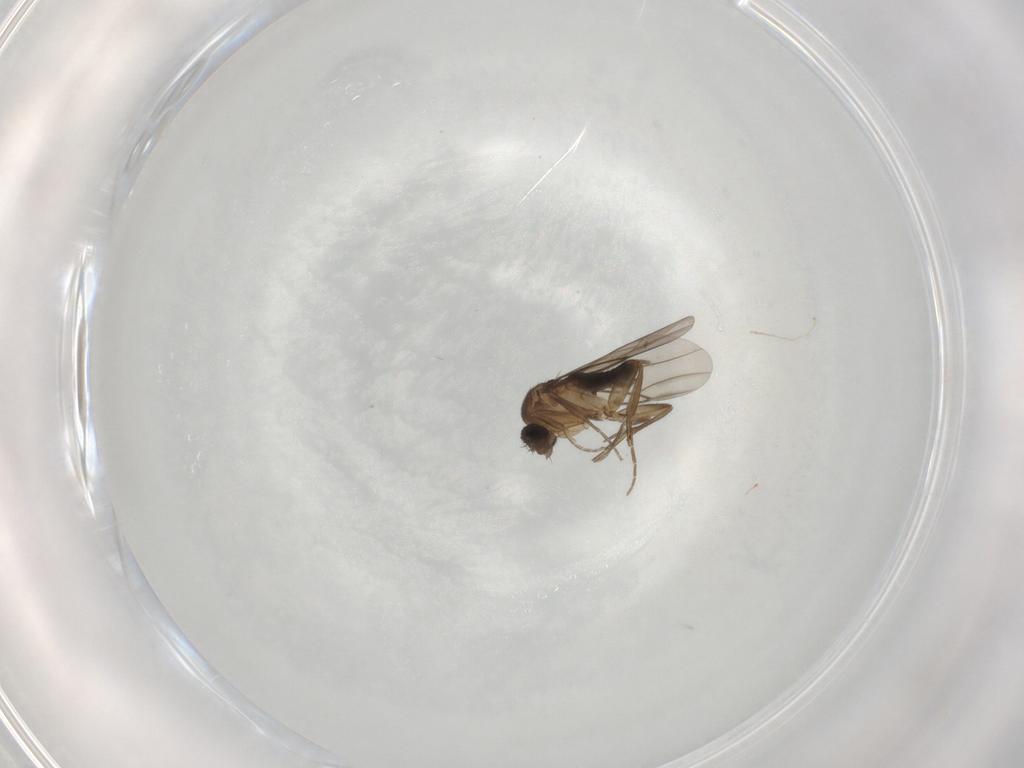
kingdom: Animalia
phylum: Arthropoda
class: Insecta
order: Diptera
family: Phoridae
